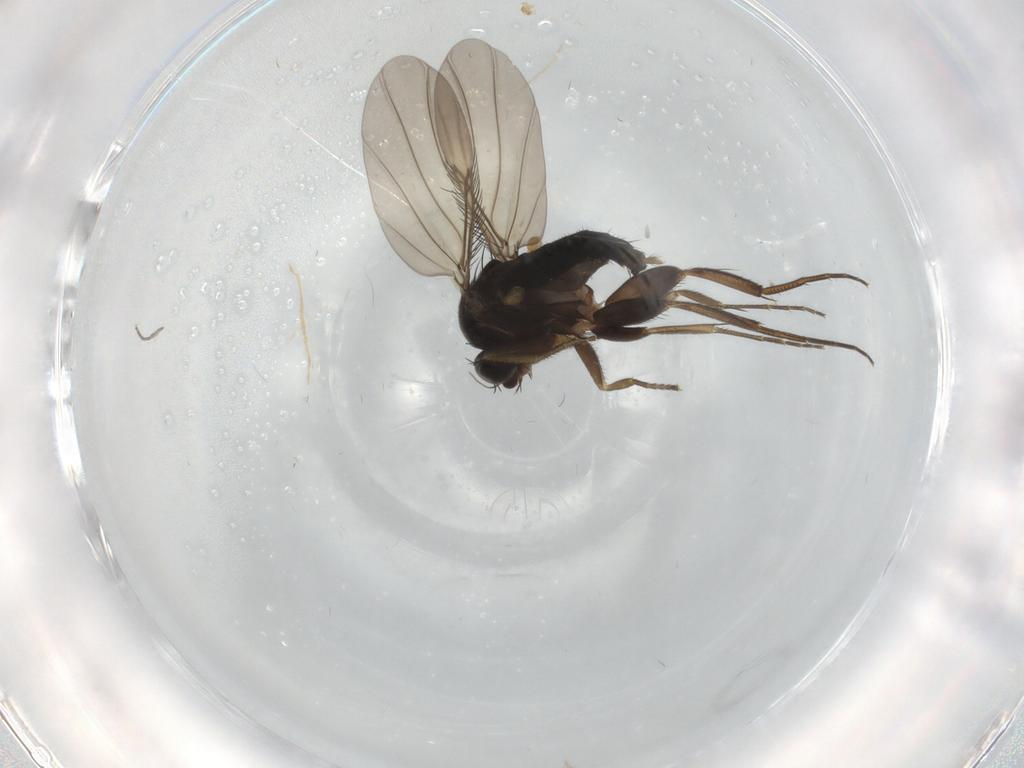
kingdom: Animalia
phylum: Arthropoda
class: Insecta
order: Diptera
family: Phoridae
